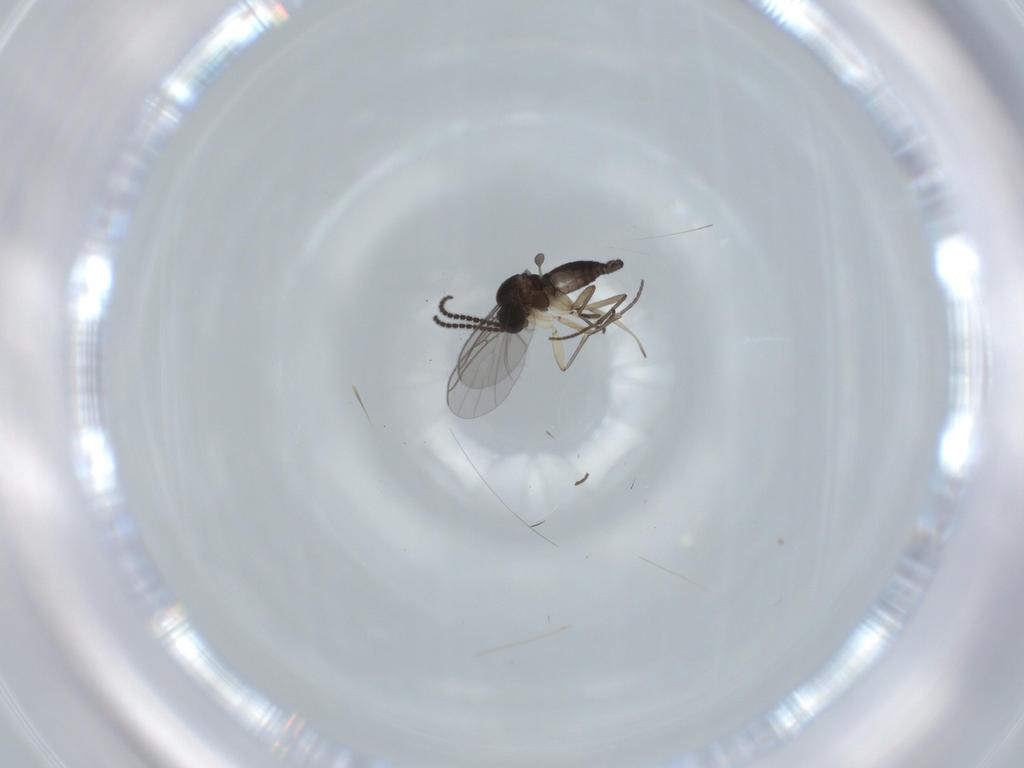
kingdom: Animalia
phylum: Arthropoda
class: Insecta
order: Diptera
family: Sciaridae
